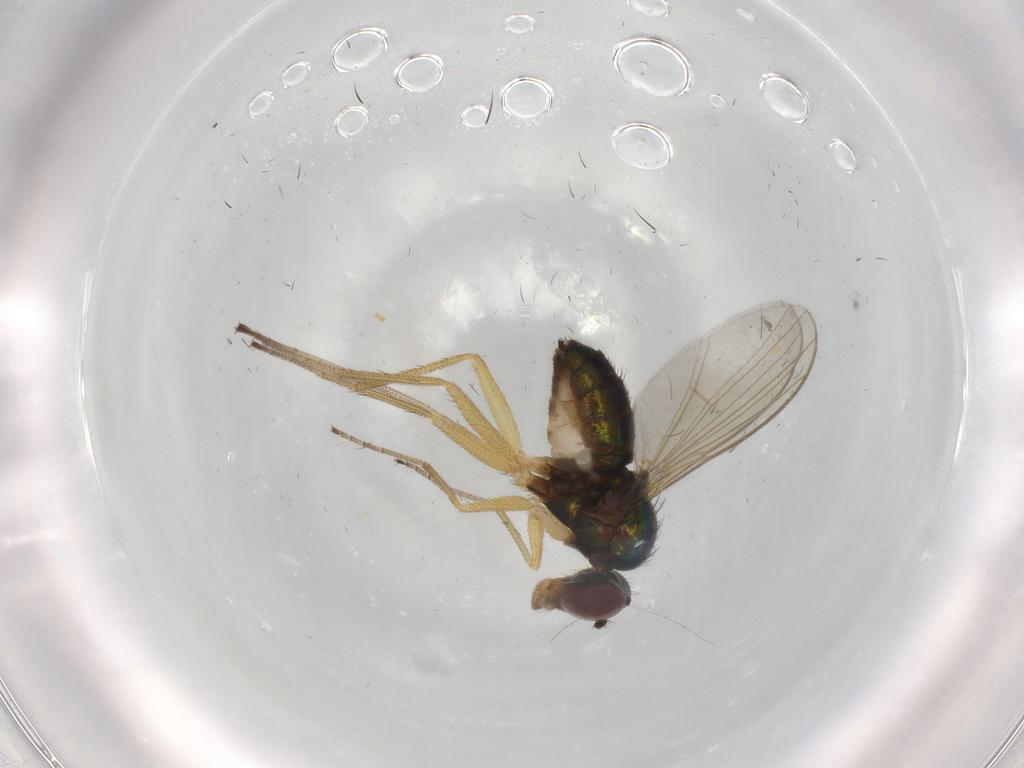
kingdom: Animalia
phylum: Arthropoda
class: Insecta
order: Diptera
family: Dolichopodidae
